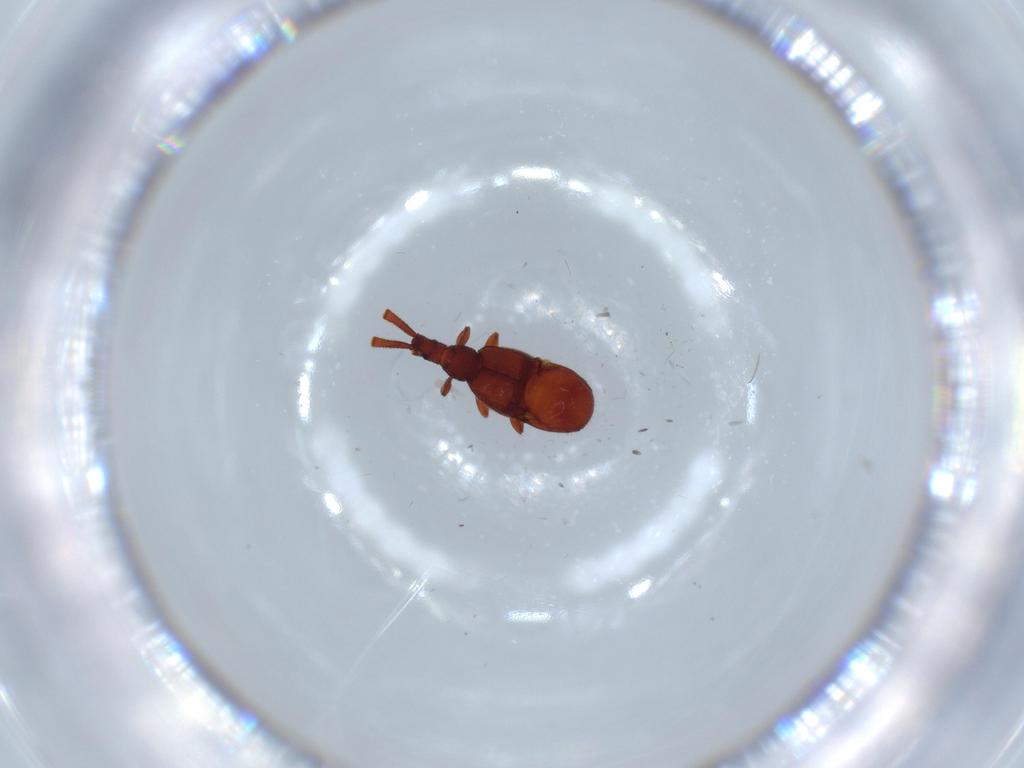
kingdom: Animalia
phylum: Arthropoda
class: Insecta
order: Coleoptera
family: Staphylinidae
